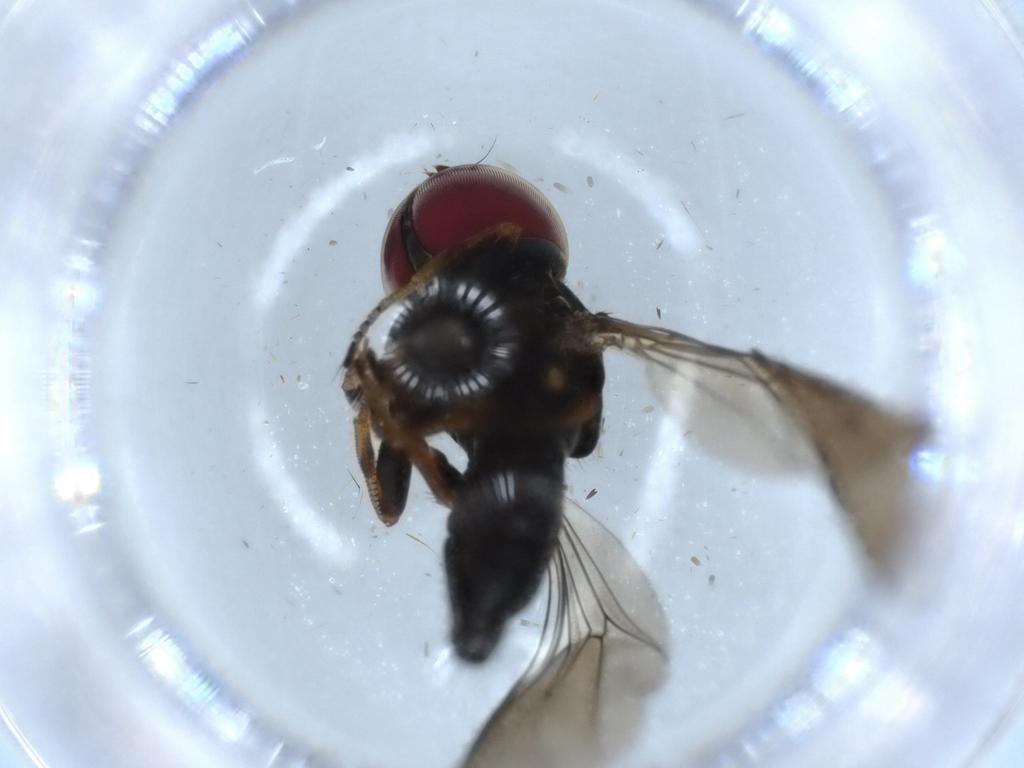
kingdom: Animalia
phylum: Arthropoda
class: Insecta
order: Diptera
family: Pipunculidae
